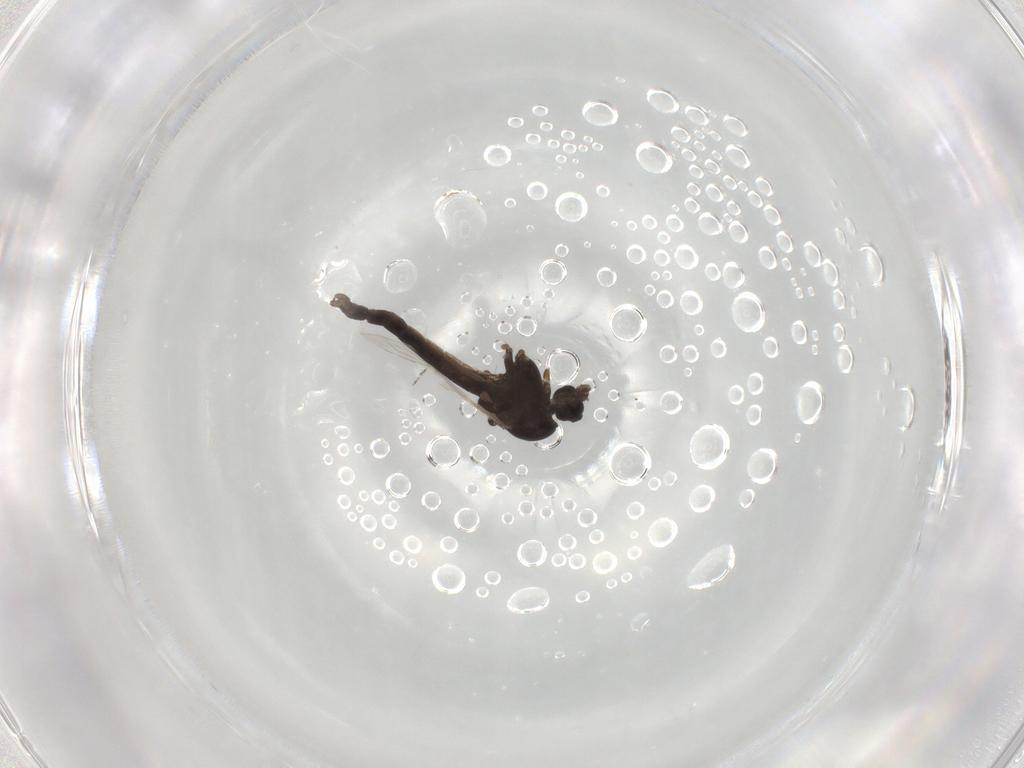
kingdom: Animalia
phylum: Arthropoda
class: Insecta
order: Diptera
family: Chironomidae
